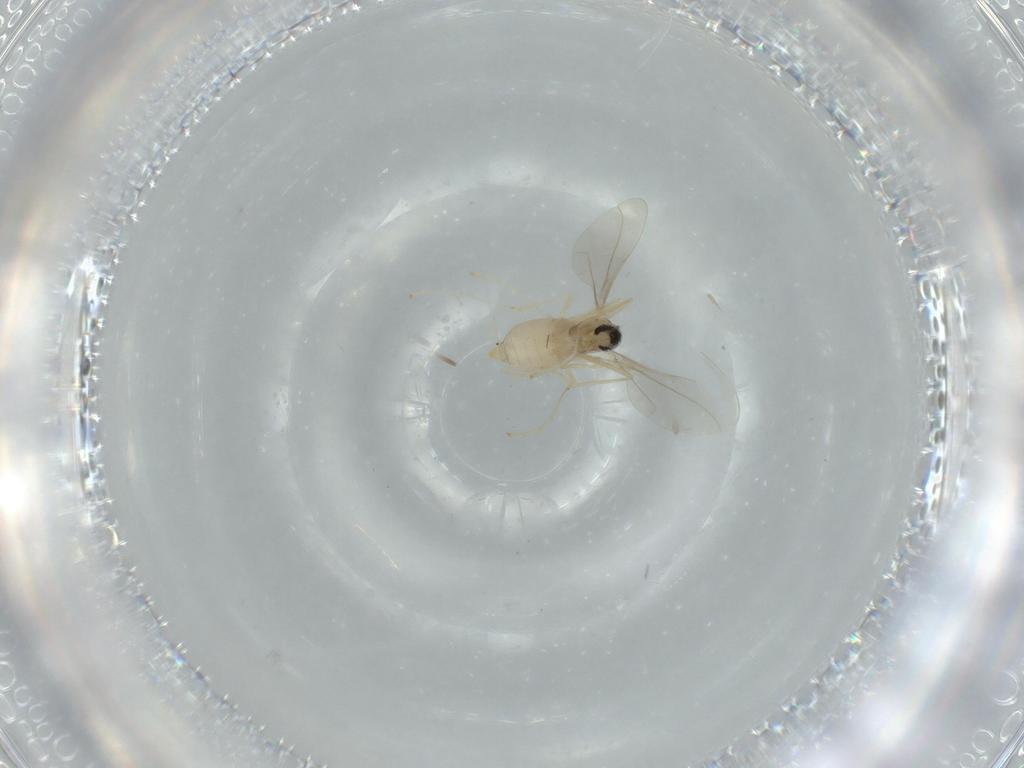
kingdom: Animalia
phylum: Arthropoda
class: Insecta
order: Diptera
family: Cecidomyiidae
